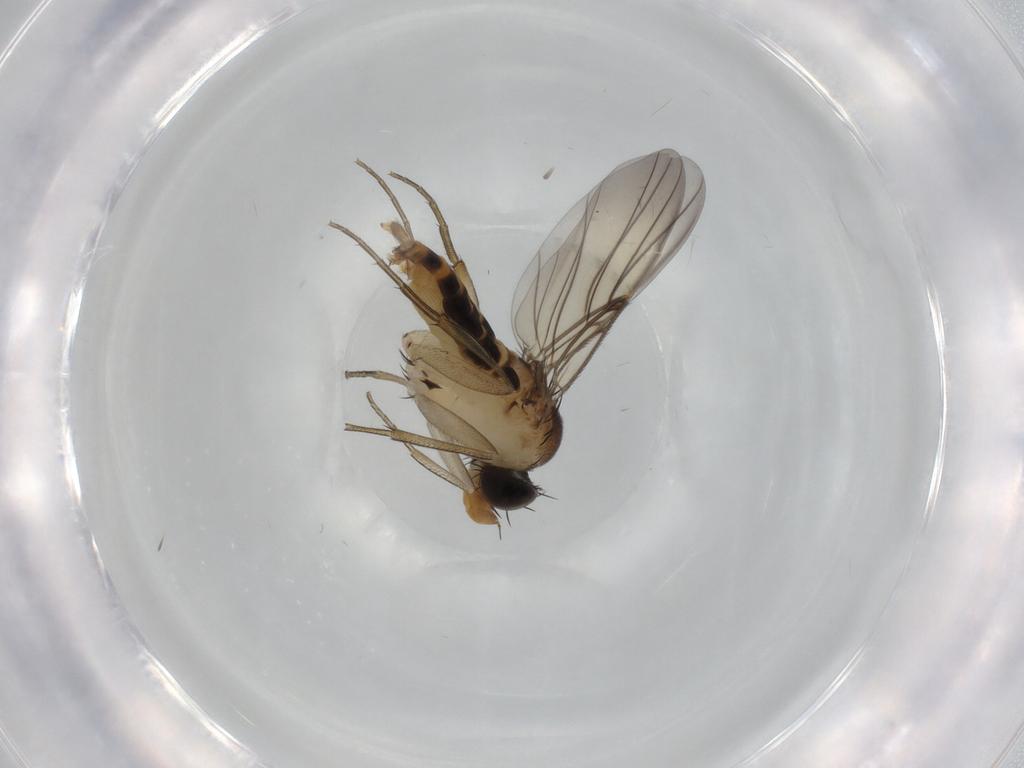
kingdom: Animalia
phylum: Arthropoda
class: Insecta
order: Diptera
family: Phoridae
